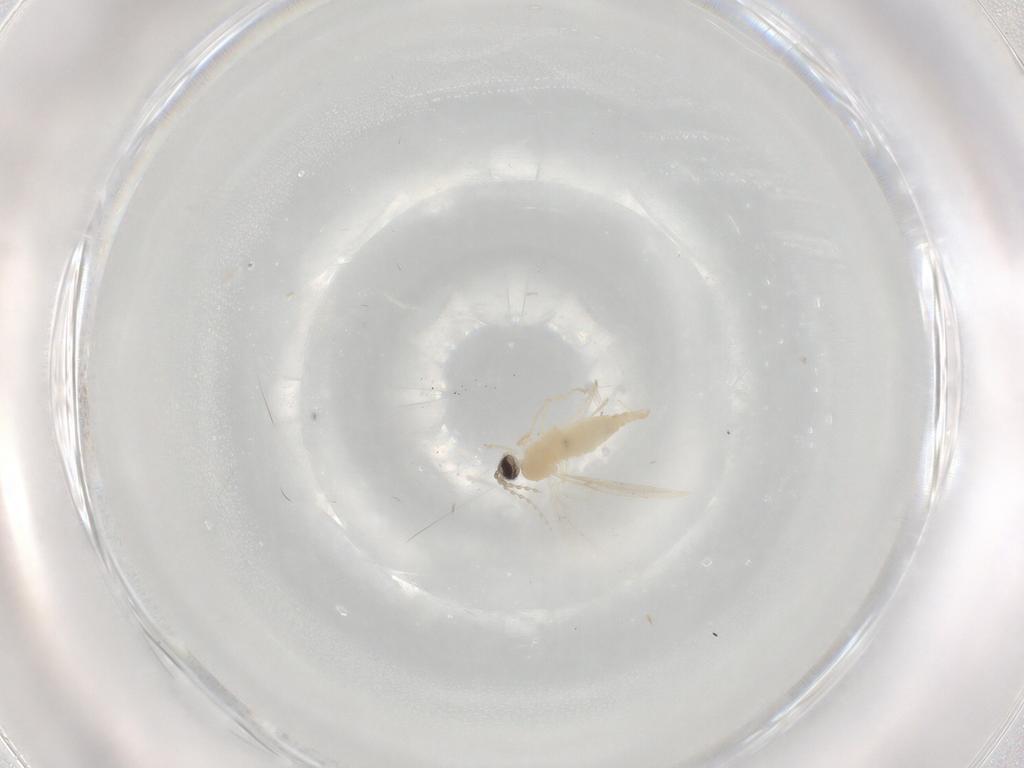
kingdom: Animalia
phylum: Arthropoda
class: Insecta
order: Diptera
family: Cecidomyiidae
